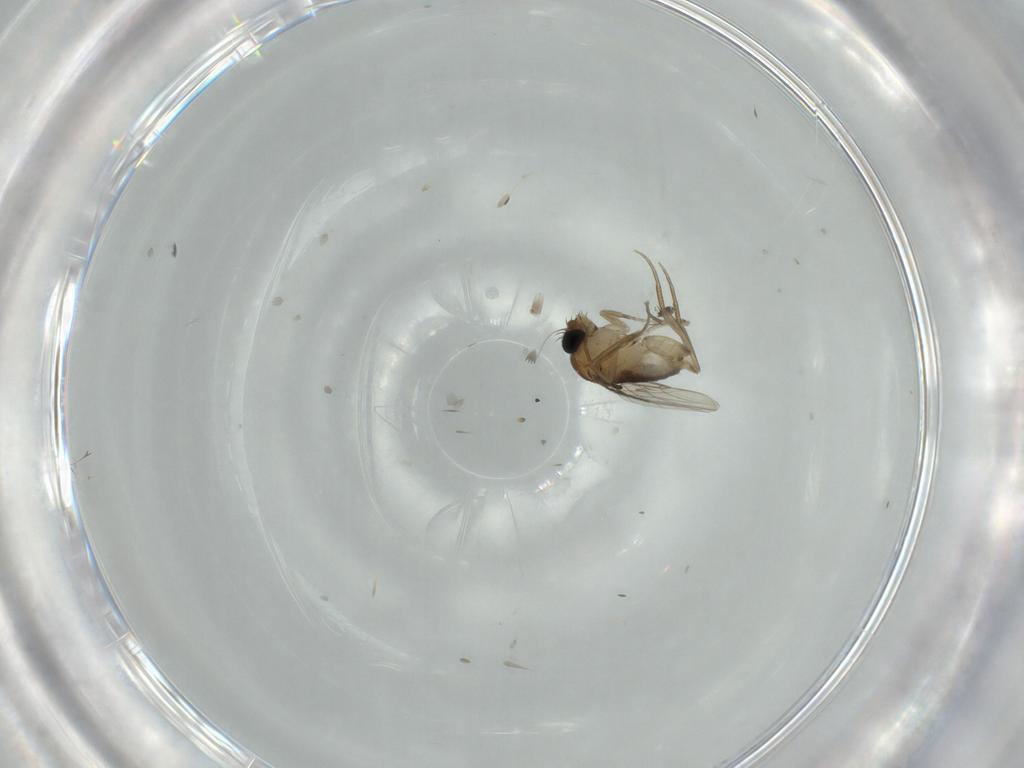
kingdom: Animalia
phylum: Arthropoda
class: Insecta
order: Diptera
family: Phoridae
